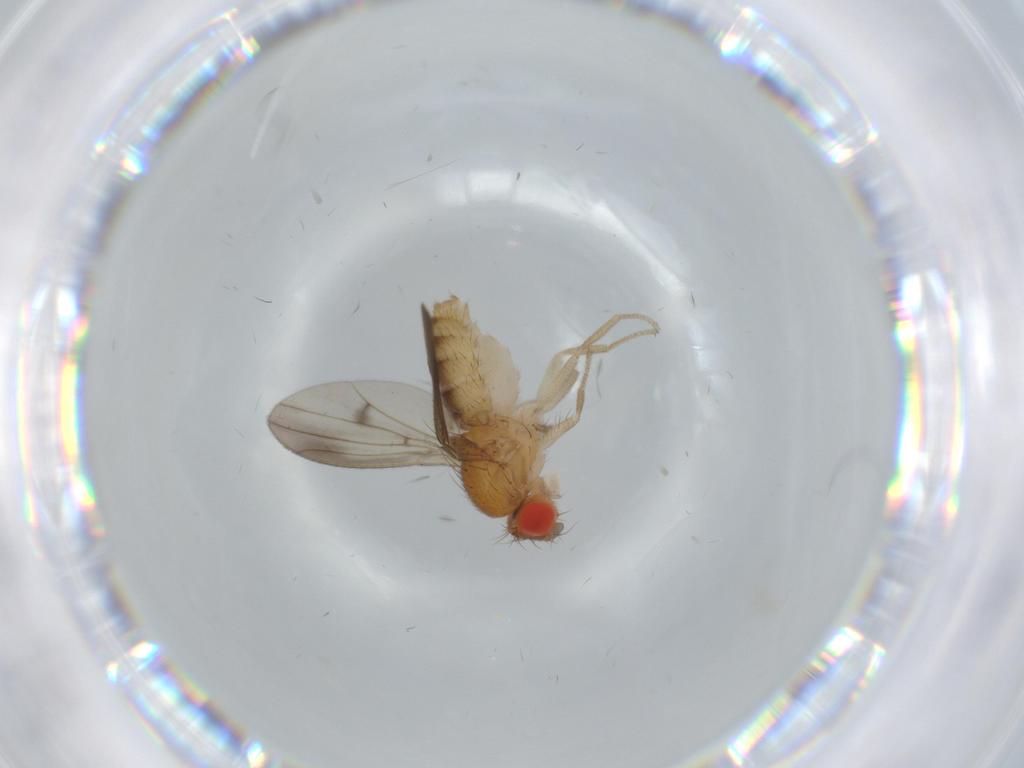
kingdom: Animalia
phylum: Arthropoda
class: Insecta
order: Diptera
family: Drosophilidae
